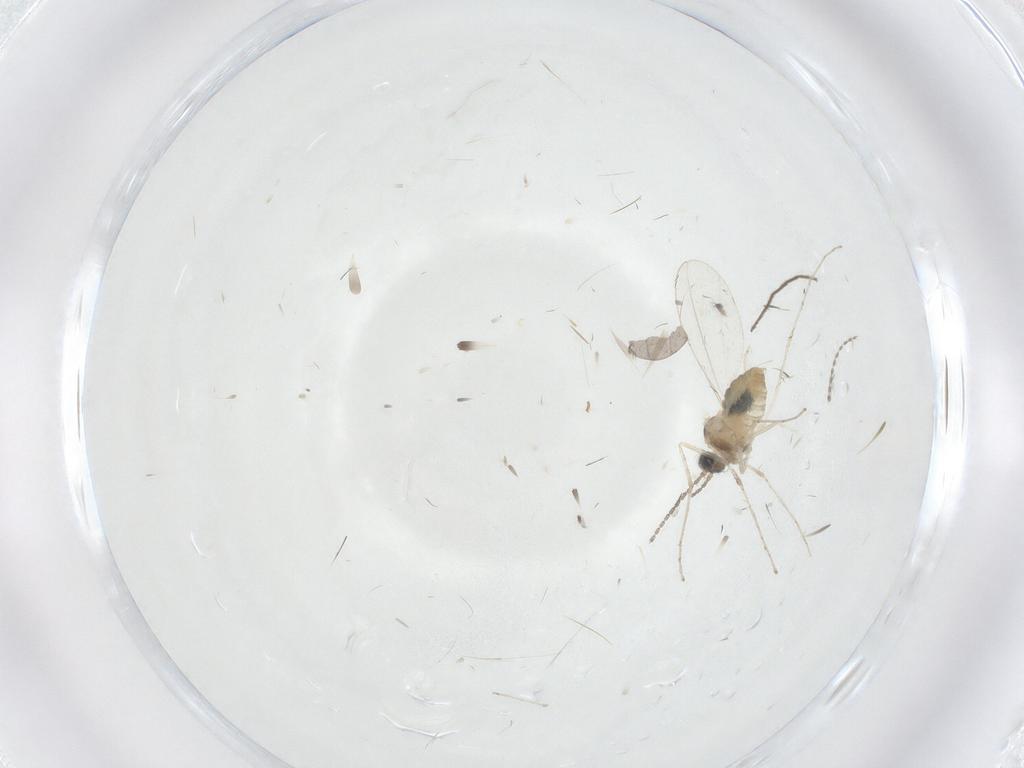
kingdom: Animalia
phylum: Arthropoda
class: Insecta
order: Diptera
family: Cecidomyiidae
